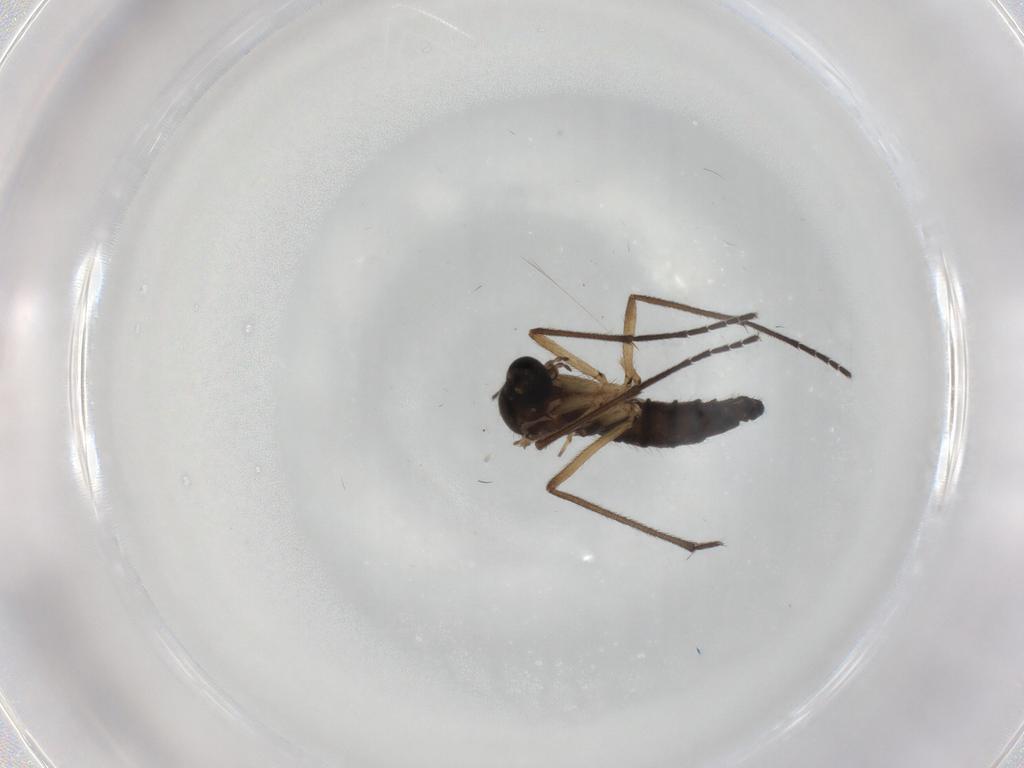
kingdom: Animalia
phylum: Arthropoda
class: Insecta
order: Diptera
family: Sciaridae
